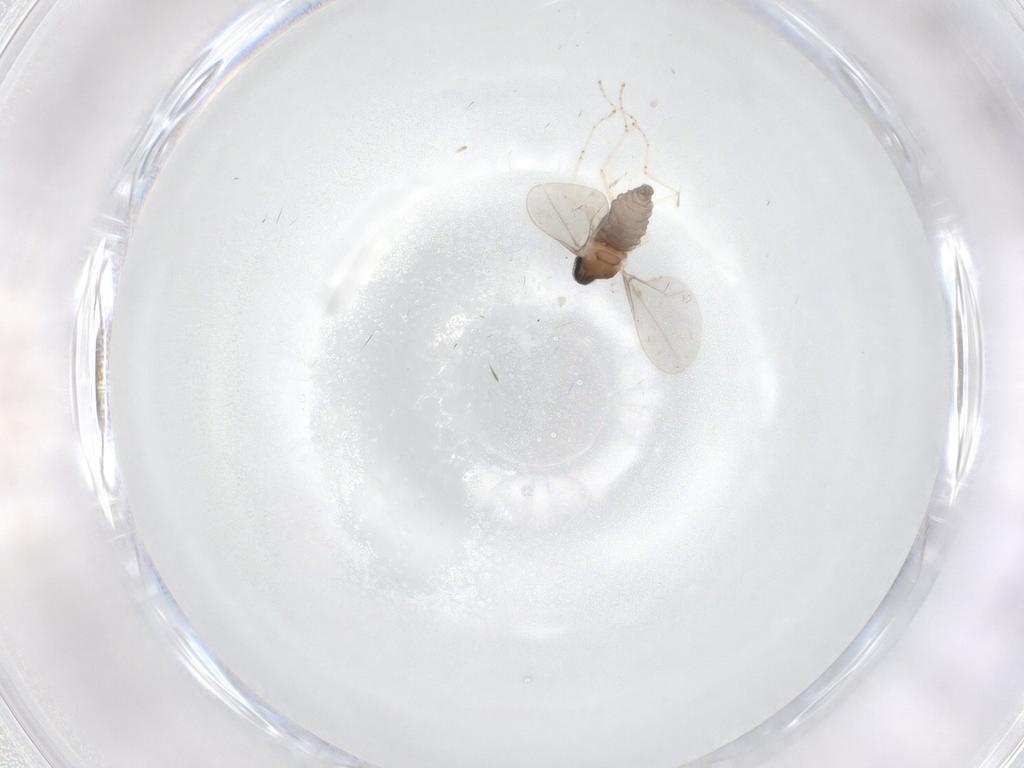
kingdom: Animalia
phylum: Arthropoda
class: Insecta
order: Diptera
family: Cecidomyiidae
